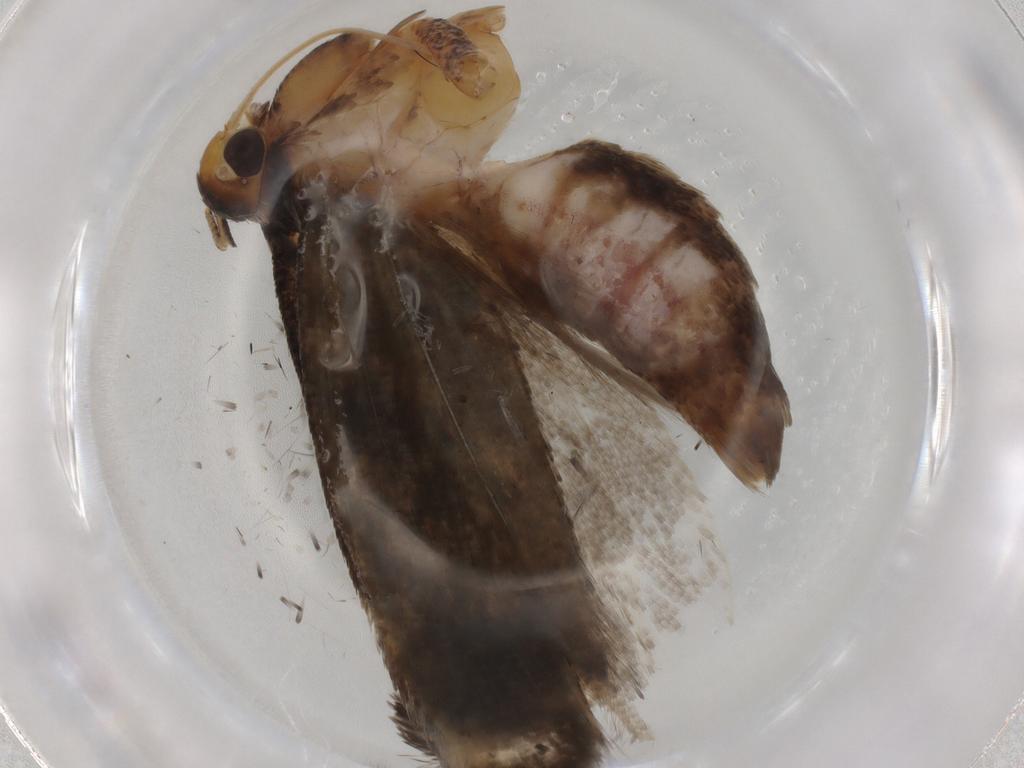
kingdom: Animalia
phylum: Arthropoda
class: Insecta
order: Lepidoptera
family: Gelechiidae
